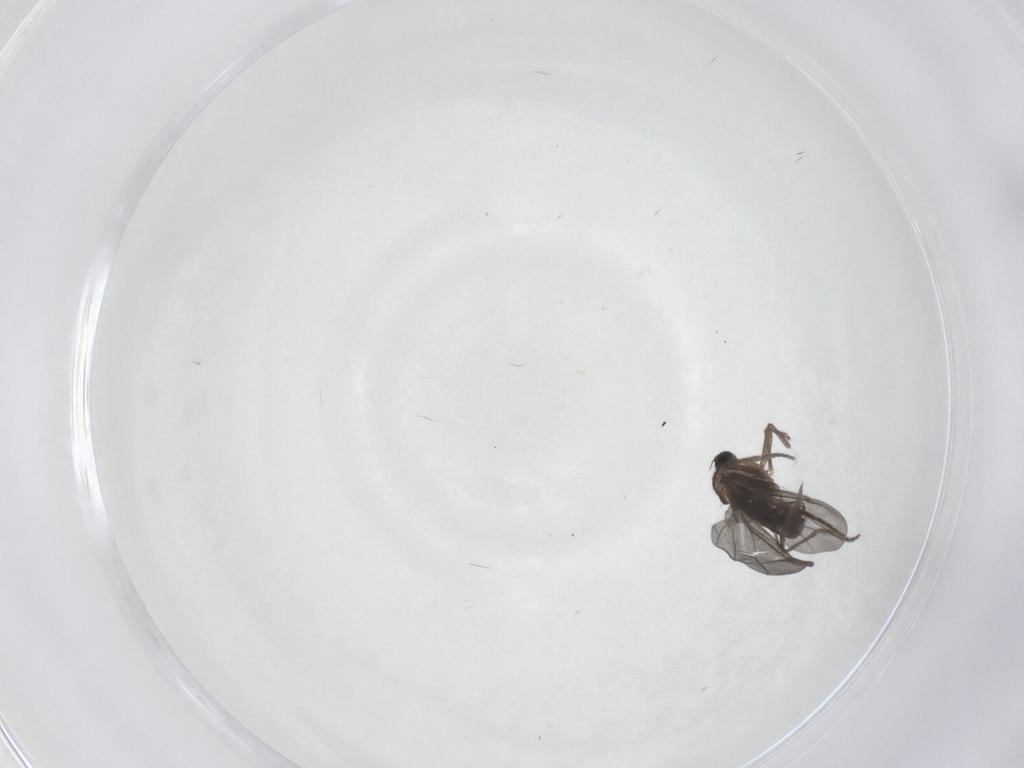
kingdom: Animalia
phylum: Arthropoda
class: Insecta
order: Diptera
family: Phoridae
